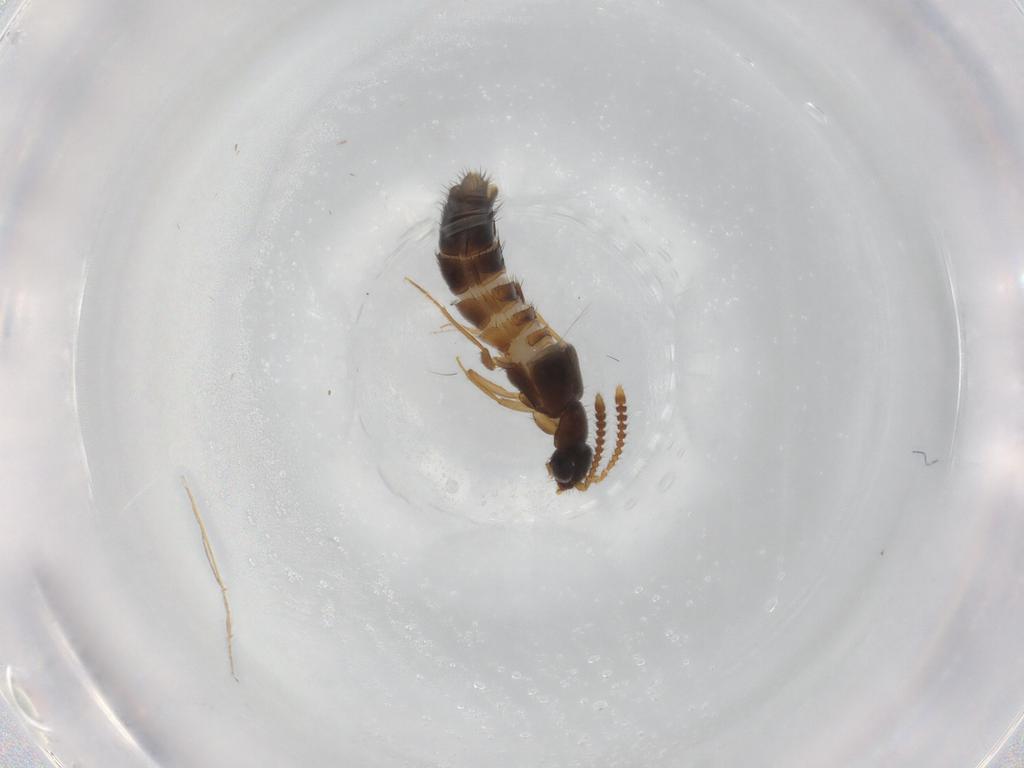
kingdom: Animalia
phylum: Arthropoda
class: Insecta
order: Coleoptera
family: Staphylinidae
